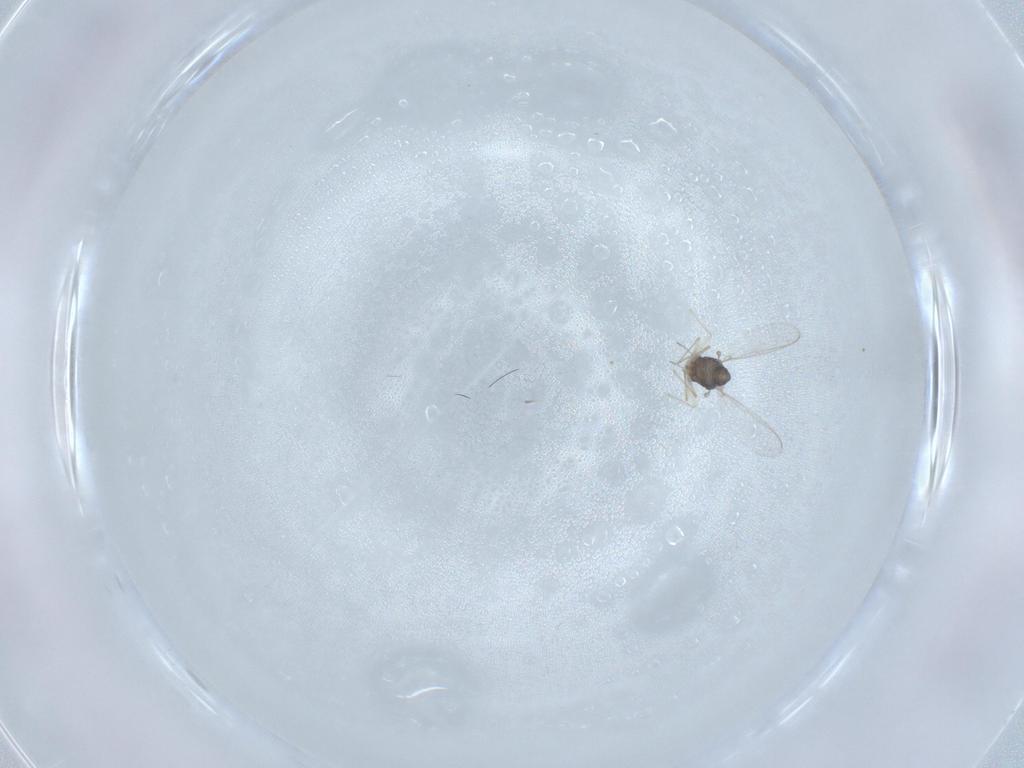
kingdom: Animalia
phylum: Arthropoda
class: Insecta
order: Diptera
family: Chironomidae
